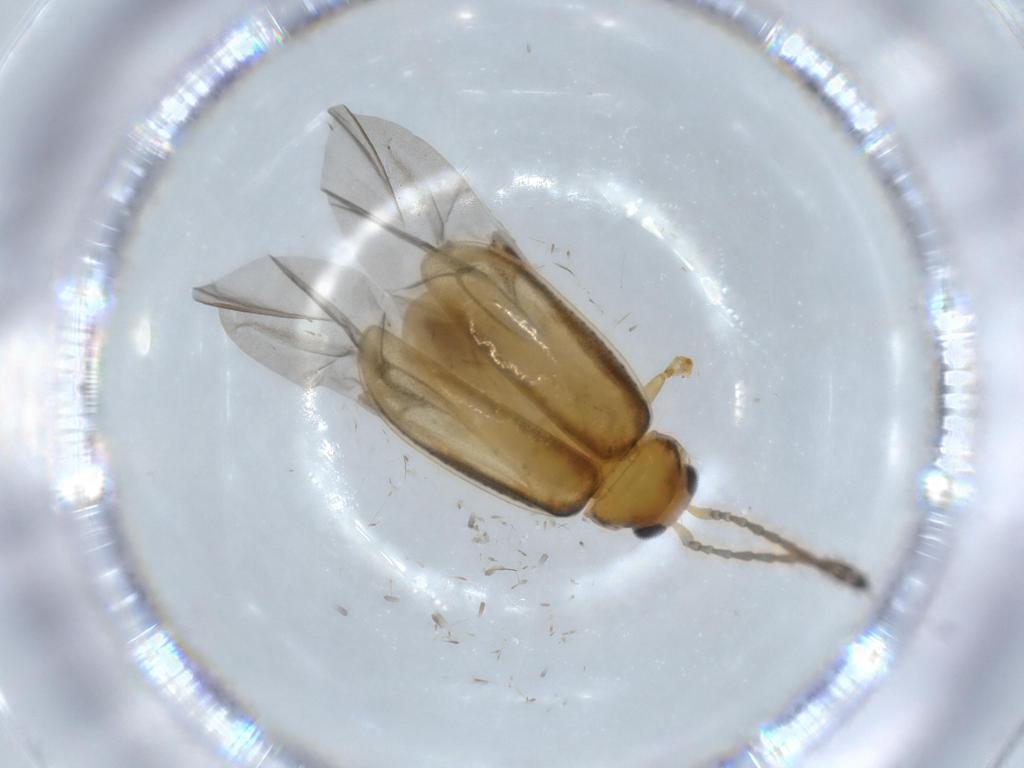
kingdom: Animalia
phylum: Arthropoda
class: Insecta
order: Coleoptera
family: Chrysomelidae
